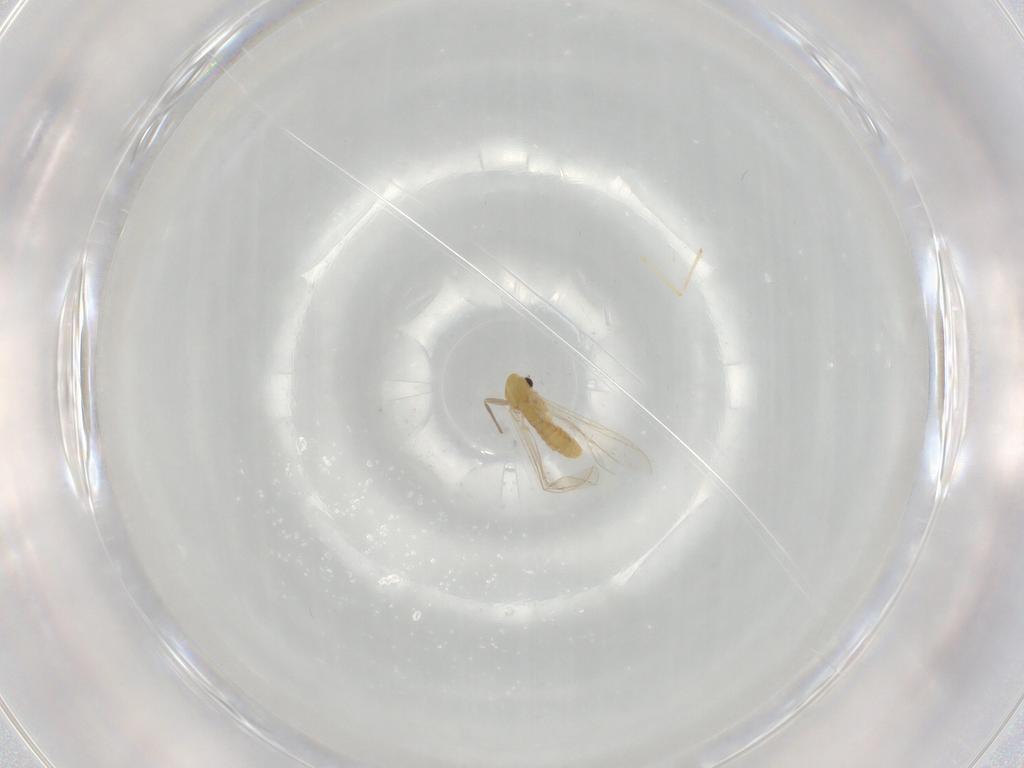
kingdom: Animalia
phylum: Arthropoda
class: Insecta
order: Diptera
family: Chironomidae
